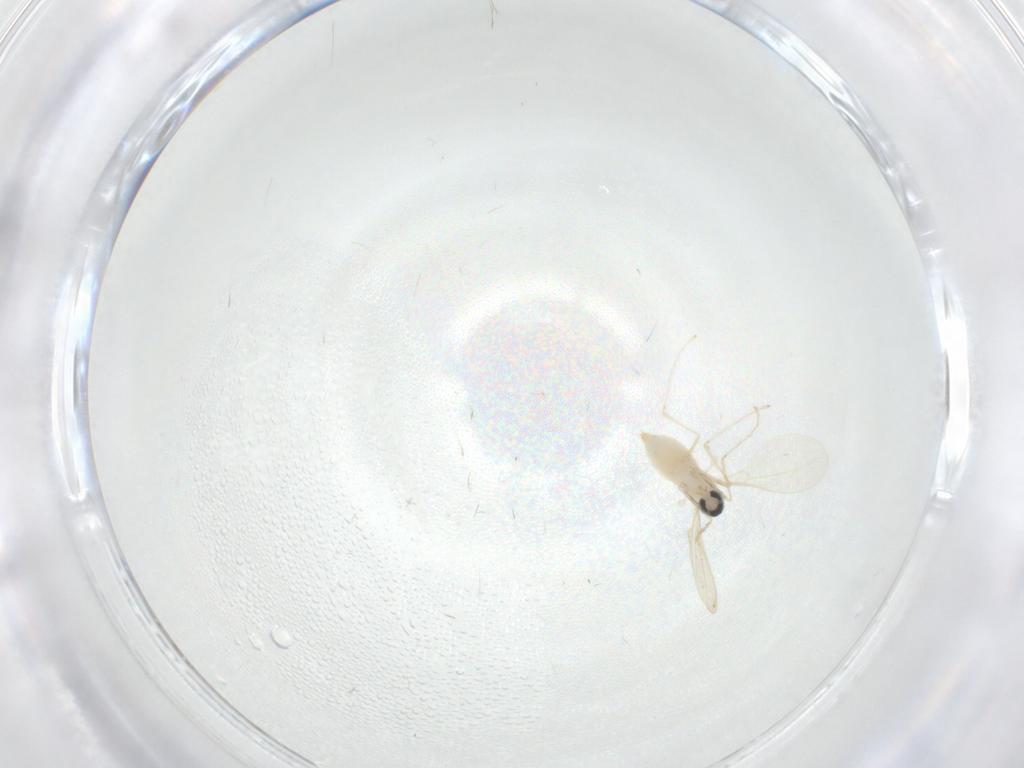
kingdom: Animalia
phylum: Arthropoda
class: Insecta
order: Diptera
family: Cecidomyiidae
